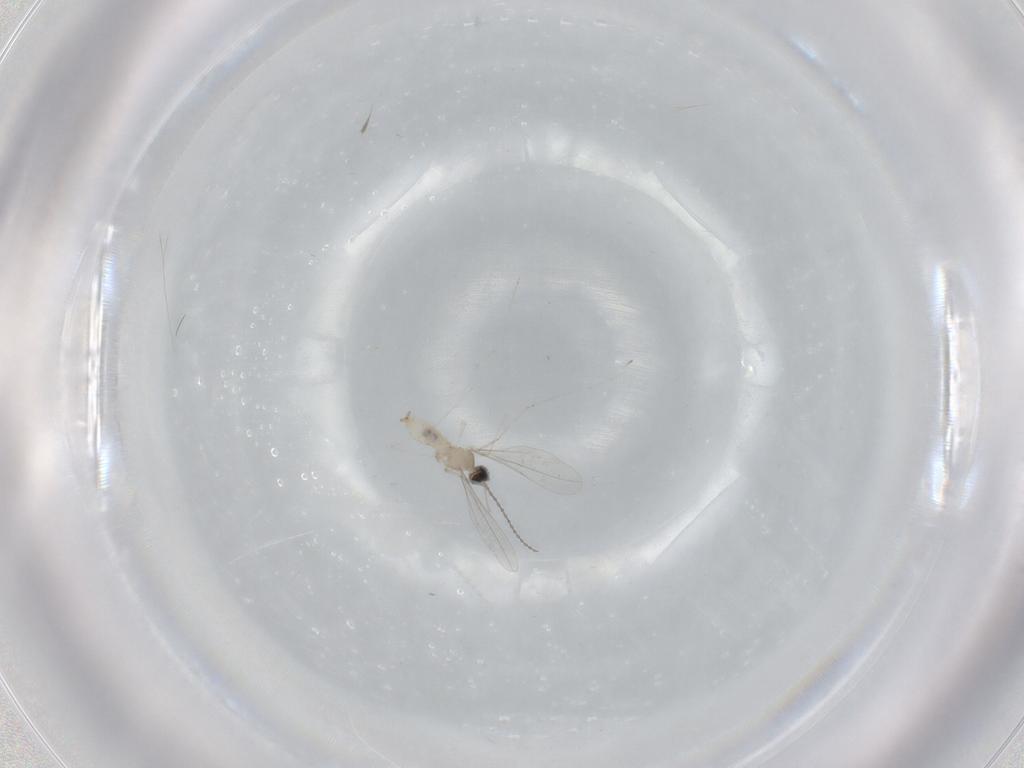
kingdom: Animalia
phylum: Arthropoda
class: Insecta
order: Diptera
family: Cecidomyiidae
